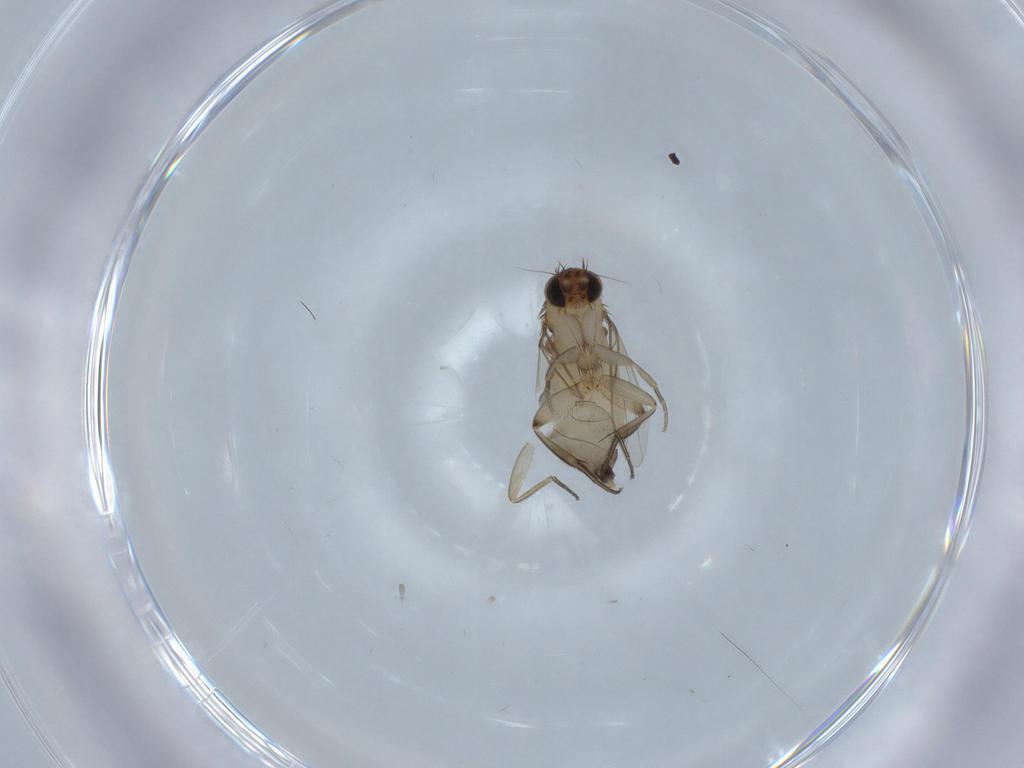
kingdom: Animalia
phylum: Arthropoda
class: Insecta
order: Diptera
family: Phoridae
